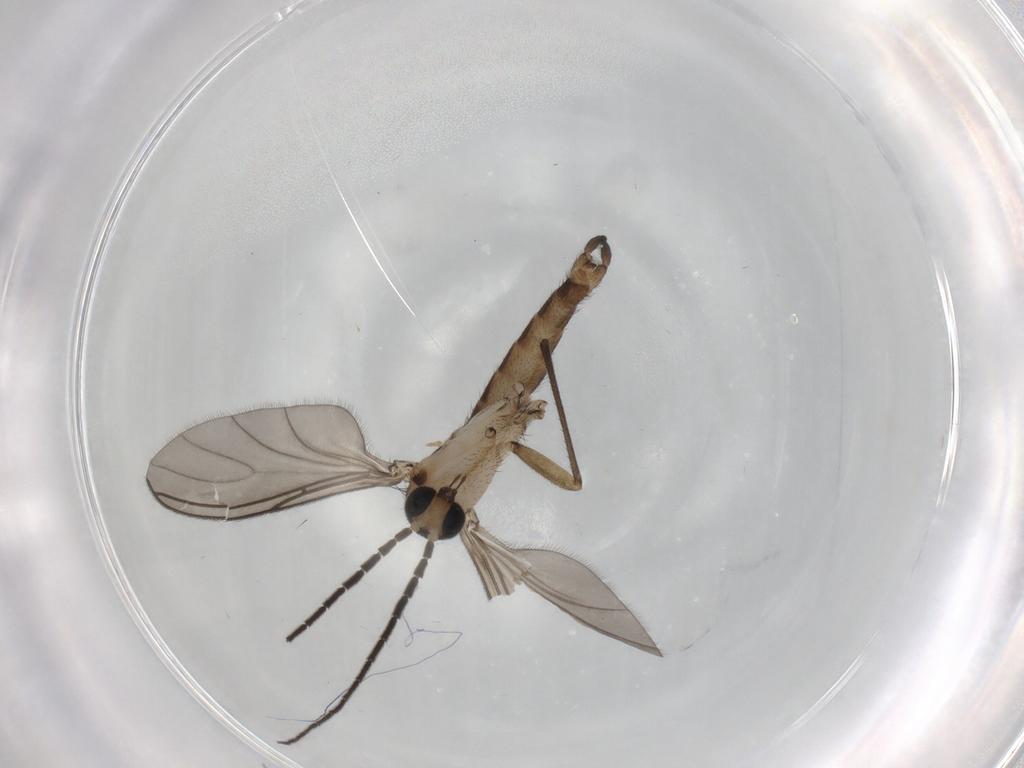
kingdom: Animalia
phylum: Arthropoda
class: Insecta
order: Diptera
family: Sciaridae
